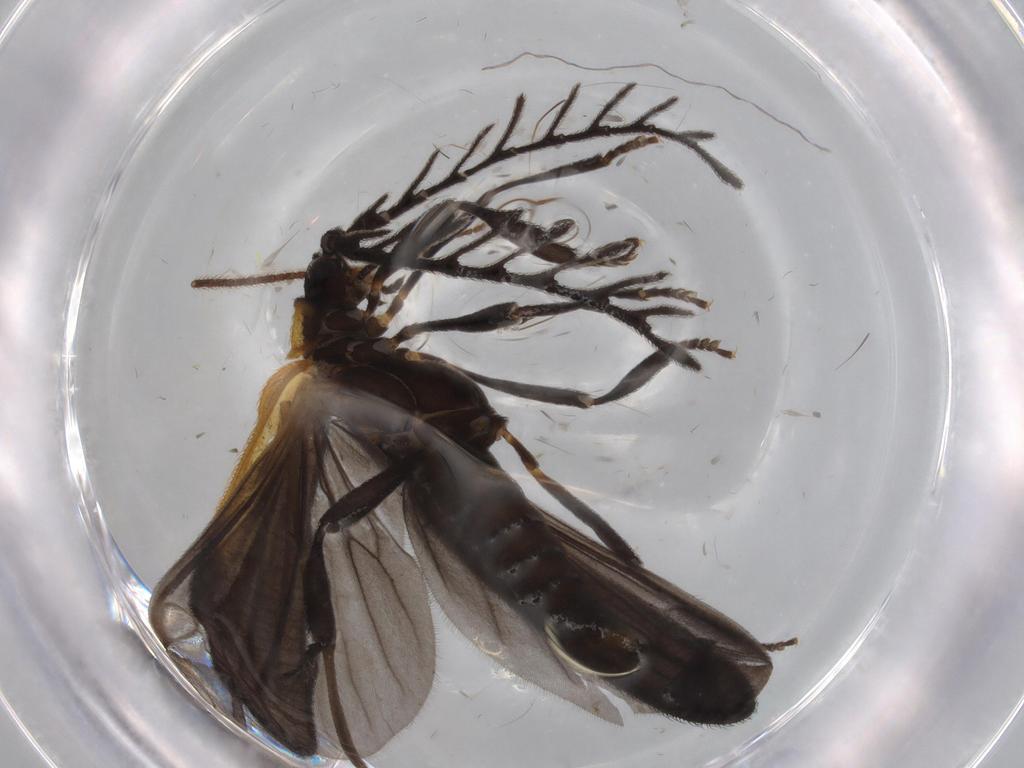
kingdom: Animalia
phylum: Arthropoda
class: Insecta
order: Coleoptera
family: Lycidae
